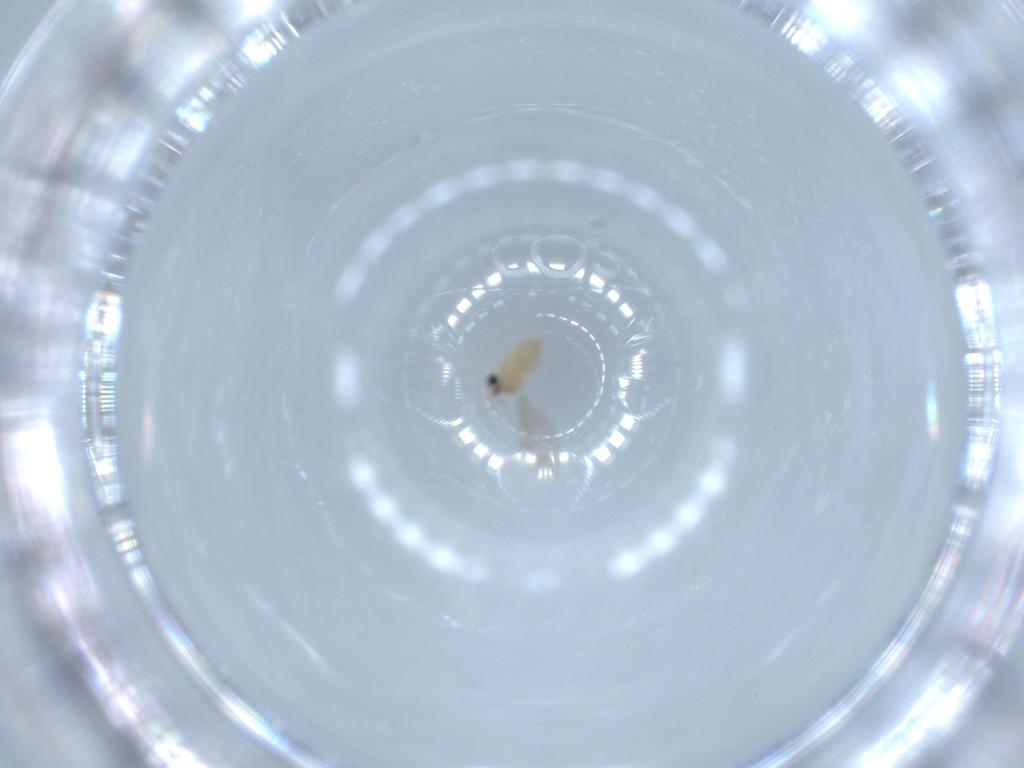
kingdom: Animalia
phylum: Arthropoda
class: Insecta
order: Diptera
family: Cecidomyiidae
